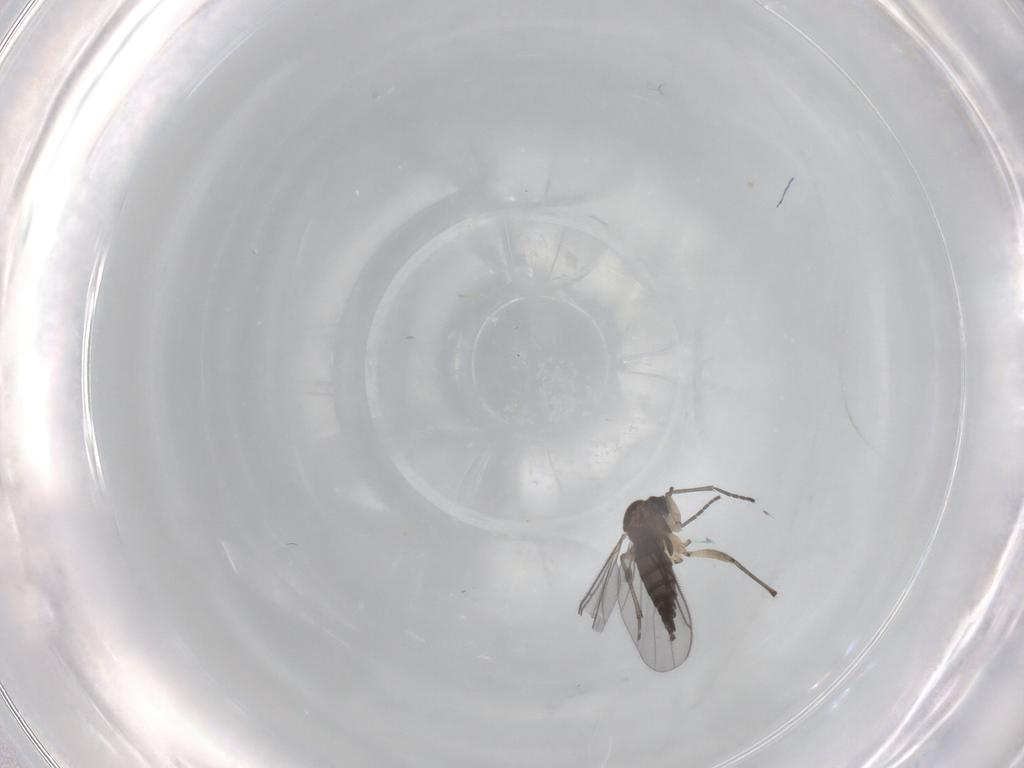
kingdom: Animalia
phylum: Arthropoda
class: Insecta
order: Diptera
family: Sciaridae
